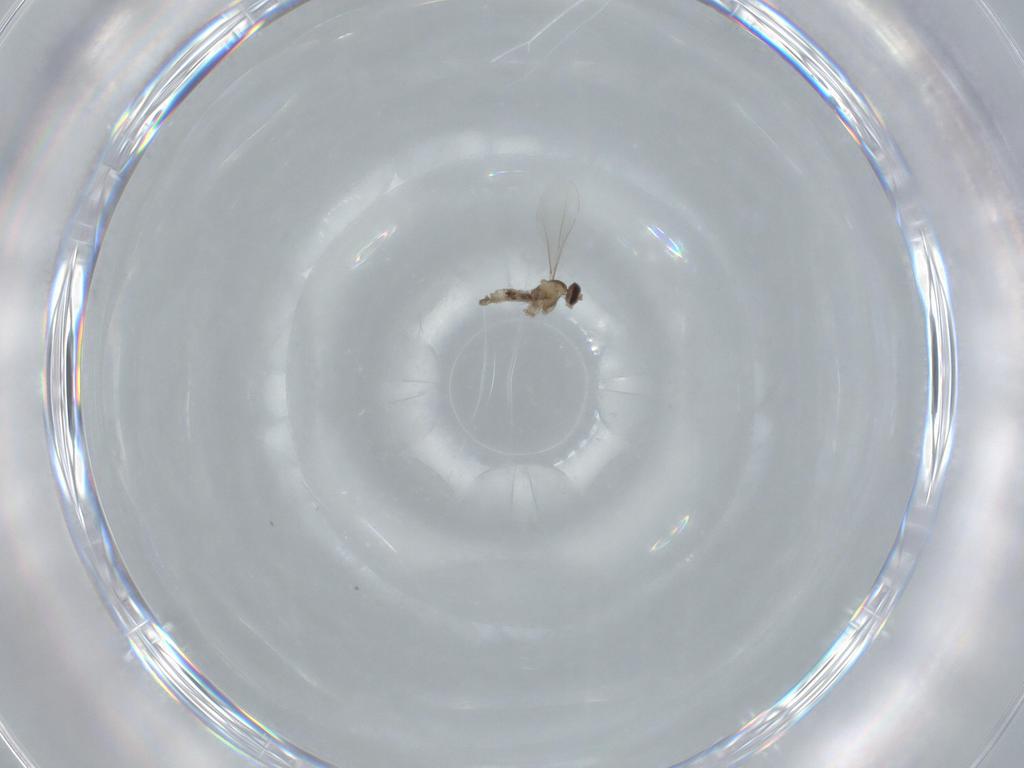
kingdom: Animalia
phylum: Arthropoda
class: Insecta
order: Diptera
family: Cecidomyiidae
